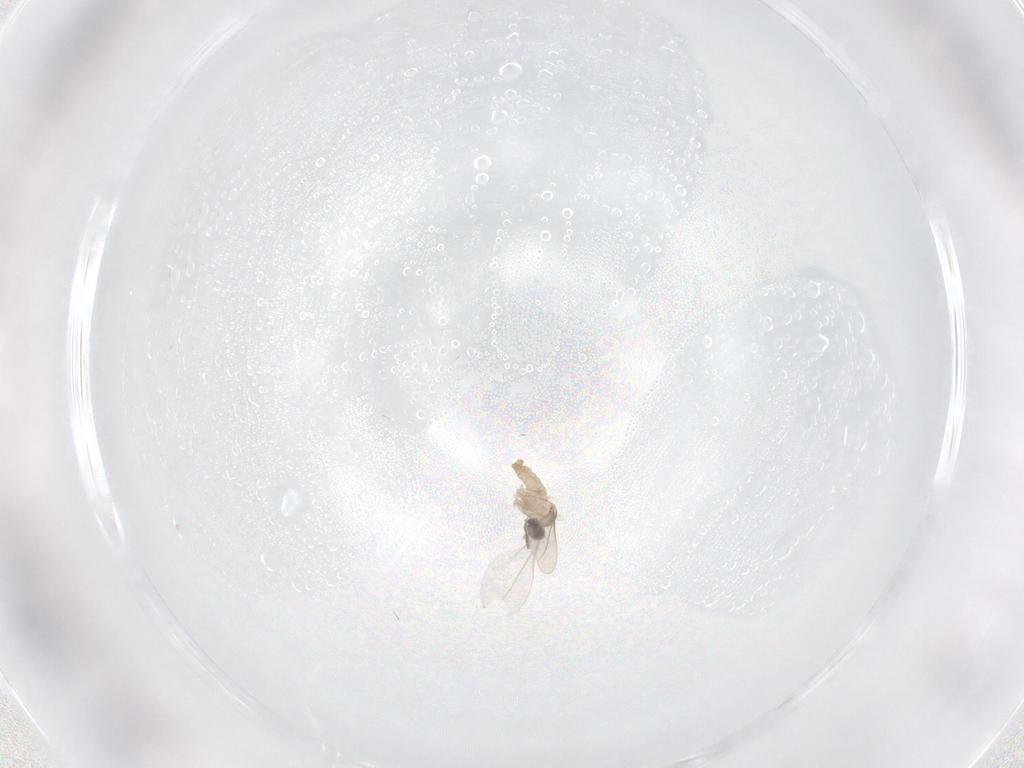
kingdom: Animalia
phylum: Arthropoda
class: Insecta
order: Diptera
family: Cecidomyiidae
